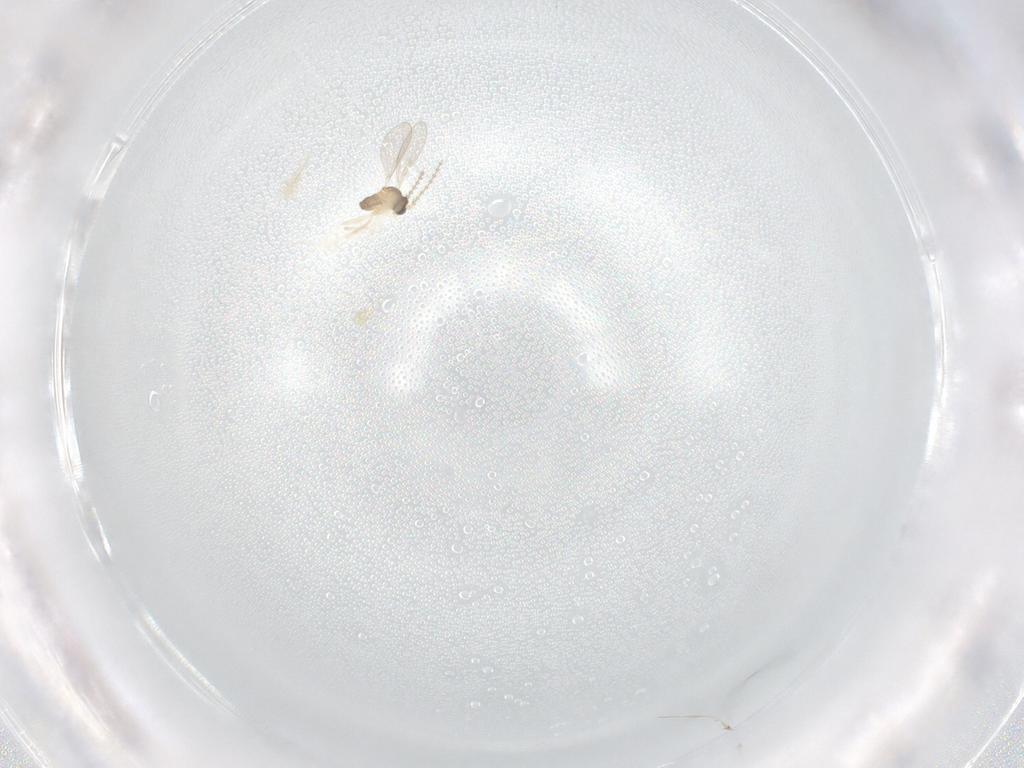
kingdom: Animalia
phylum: Arthropoda
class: Insecta
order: Diptera
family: Cecidomyiidae
